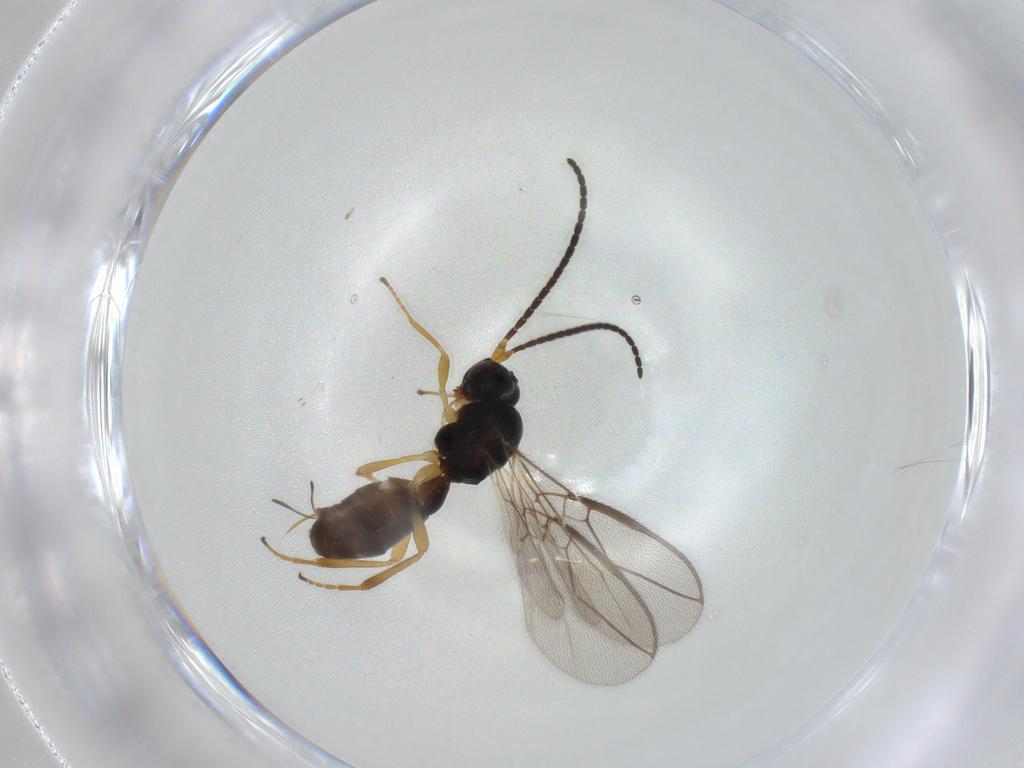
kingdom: Animalia
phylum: Arthropoda
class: Insecta
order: Hymenoptera
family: Braconidae
